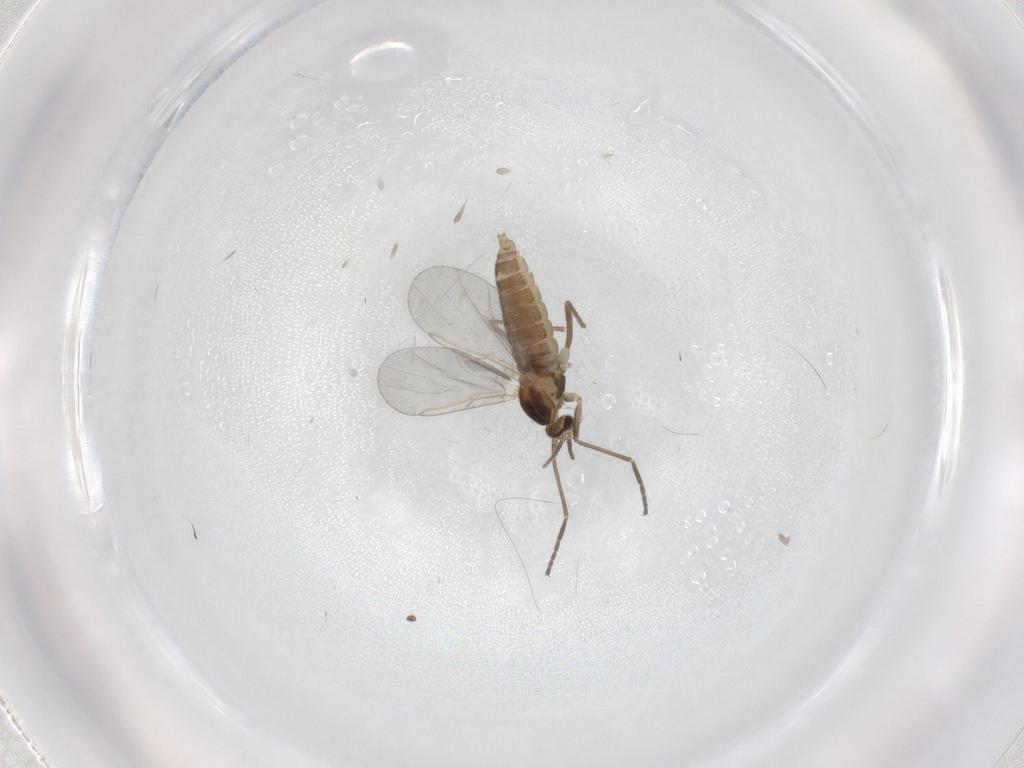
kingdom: Animalia
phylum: Arthropoda
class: Insecta
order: Diptera
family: Cecidomyiidae
